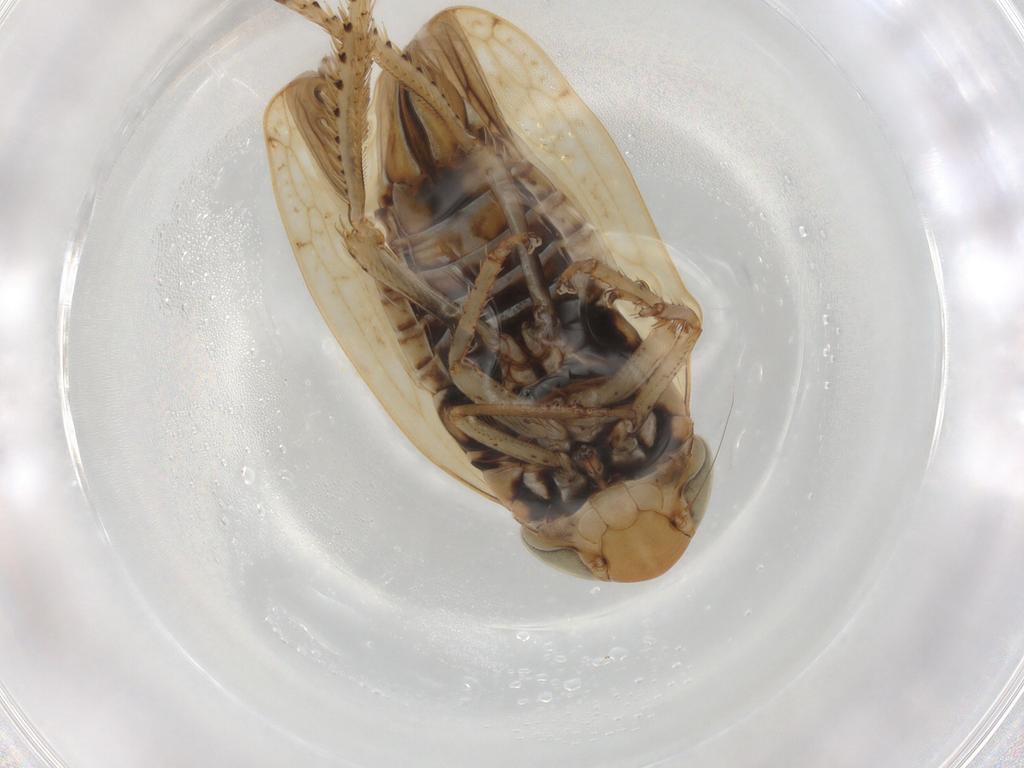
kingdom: Animalia
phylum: Arthropoda
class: Insecta
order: Hemiptera
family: Cicadellidae
